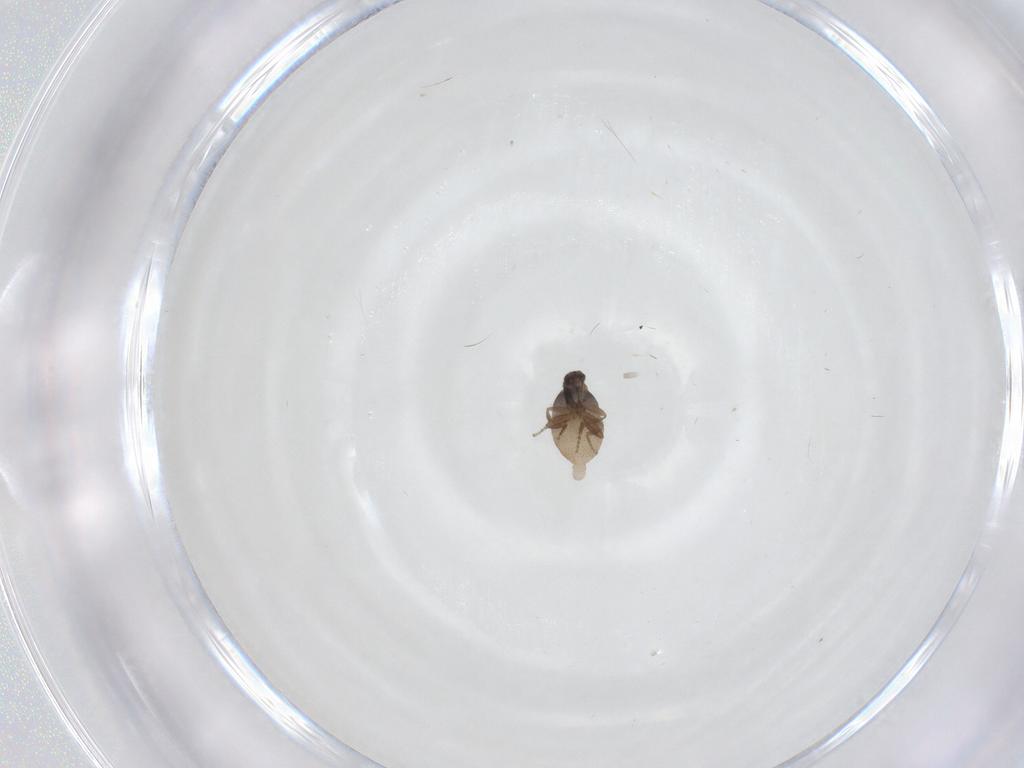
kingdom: Animalia
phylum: Arthropoda
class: Insecta
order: Diptera
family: Phoridae
